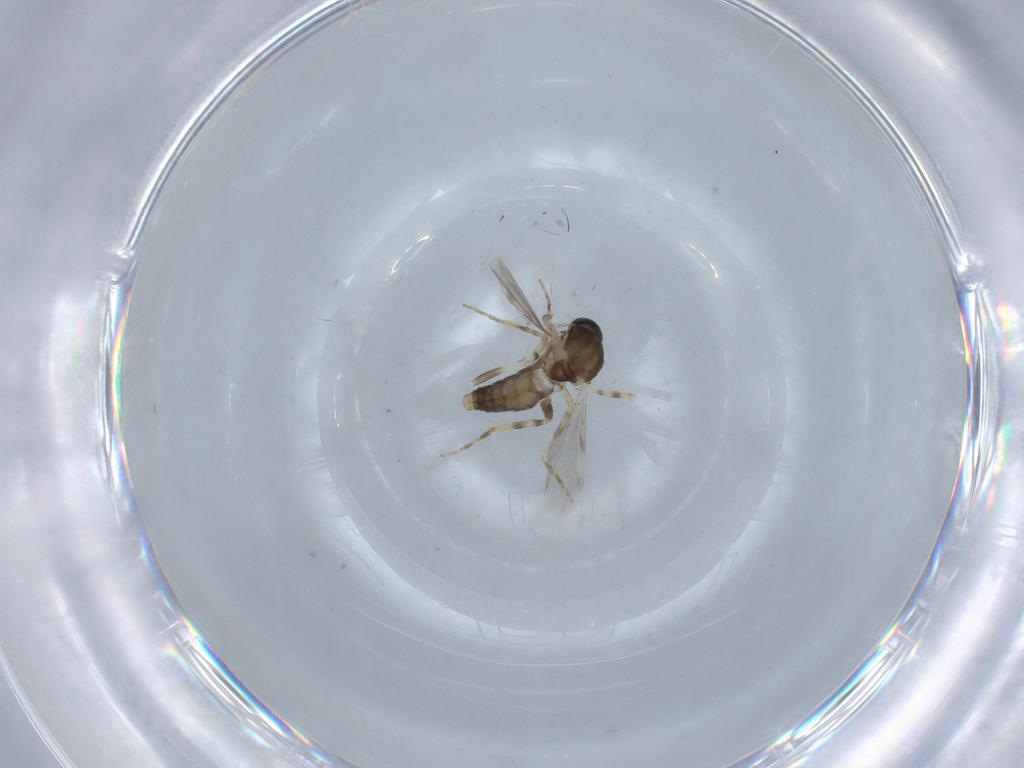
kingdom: Animalia
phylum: Arthropoda
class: Insecta
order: Diptera
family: Ceratopogonidae
